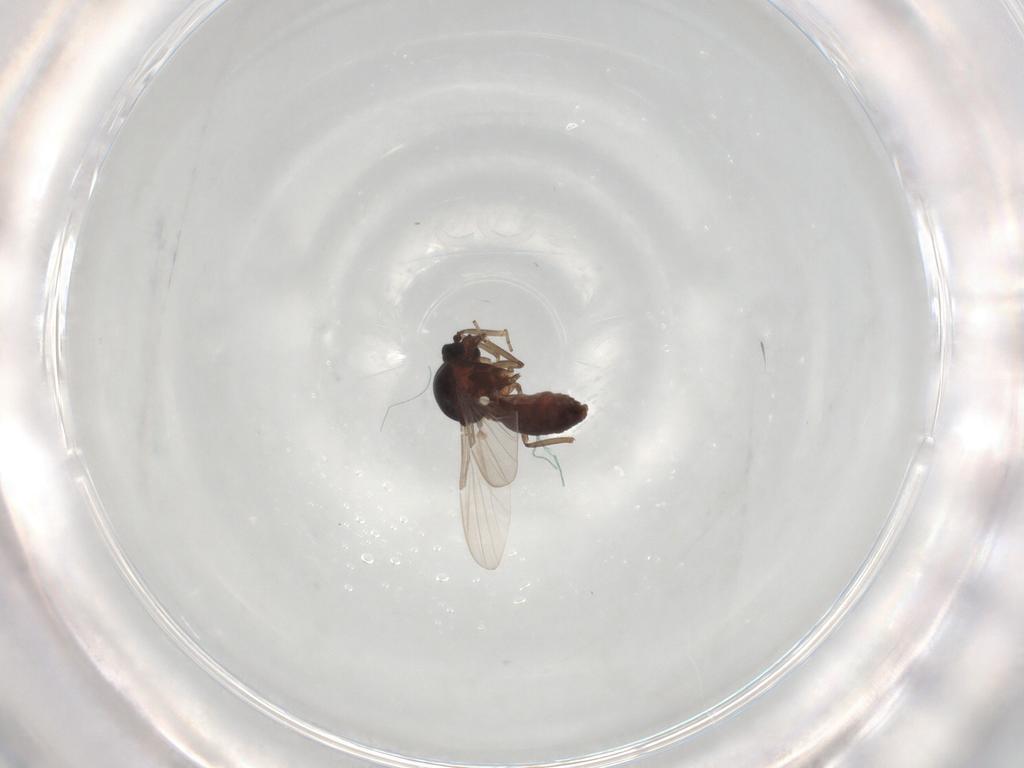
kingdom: Animalia
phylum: Arthropoda
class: Insecta
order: Diptera
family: Ceratopogonidae
